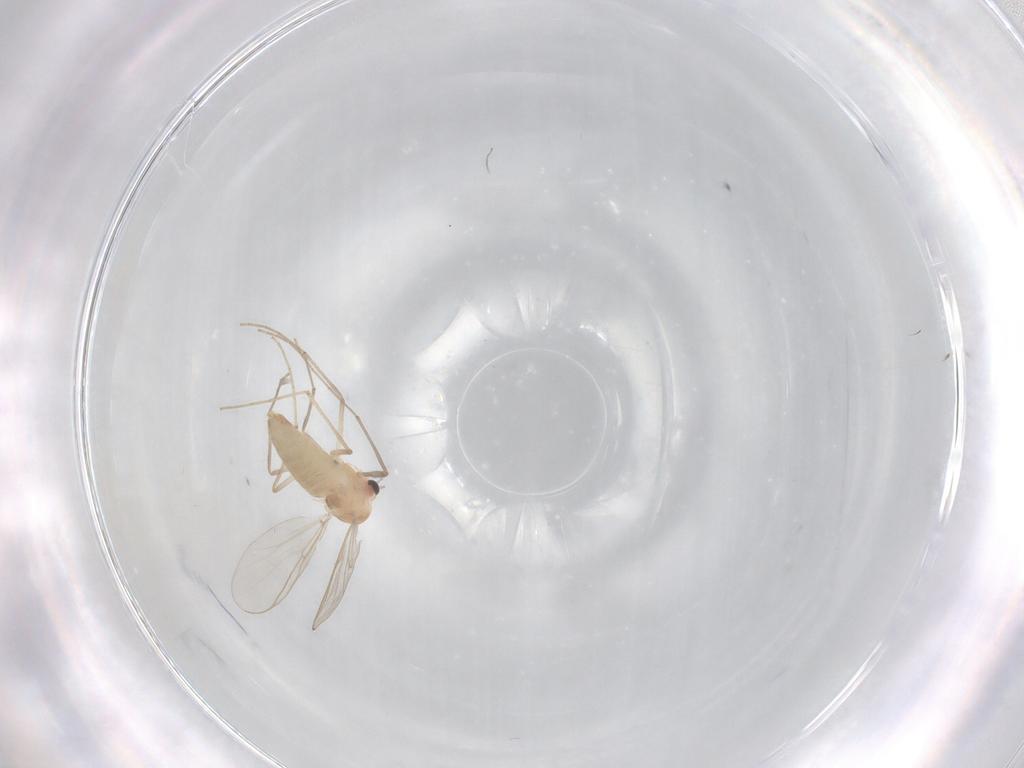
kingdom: Animalia
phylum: Arthropoda
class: Insecta
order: Diptera
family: Chironomidae
